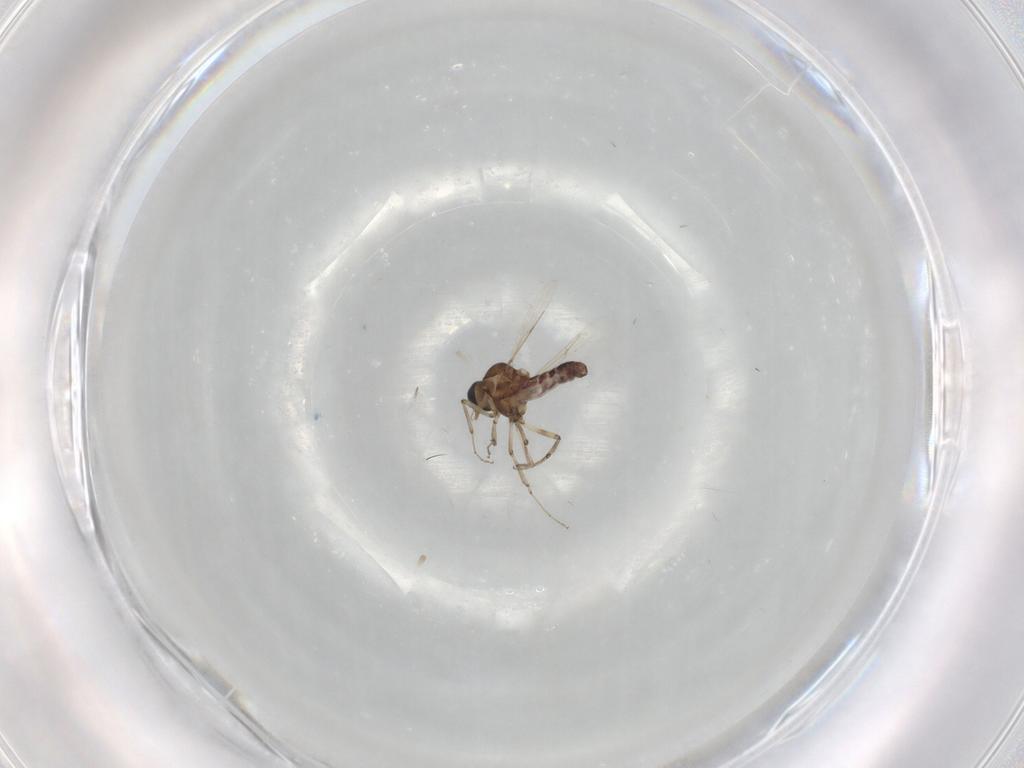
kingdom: Animalia
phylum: Arthropoda
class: Insecta
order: Diptera
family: Ceratopogonidae
